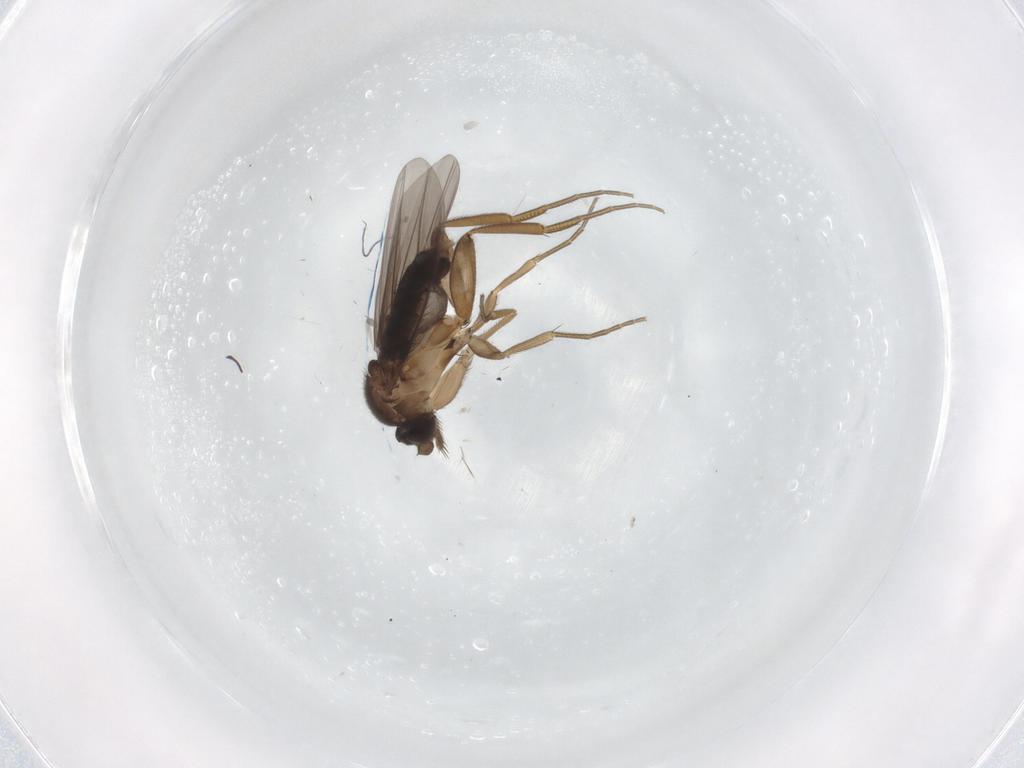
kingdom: Animalia
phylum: Arthropoda
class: Insecta
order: Diptera
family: Phoridae
